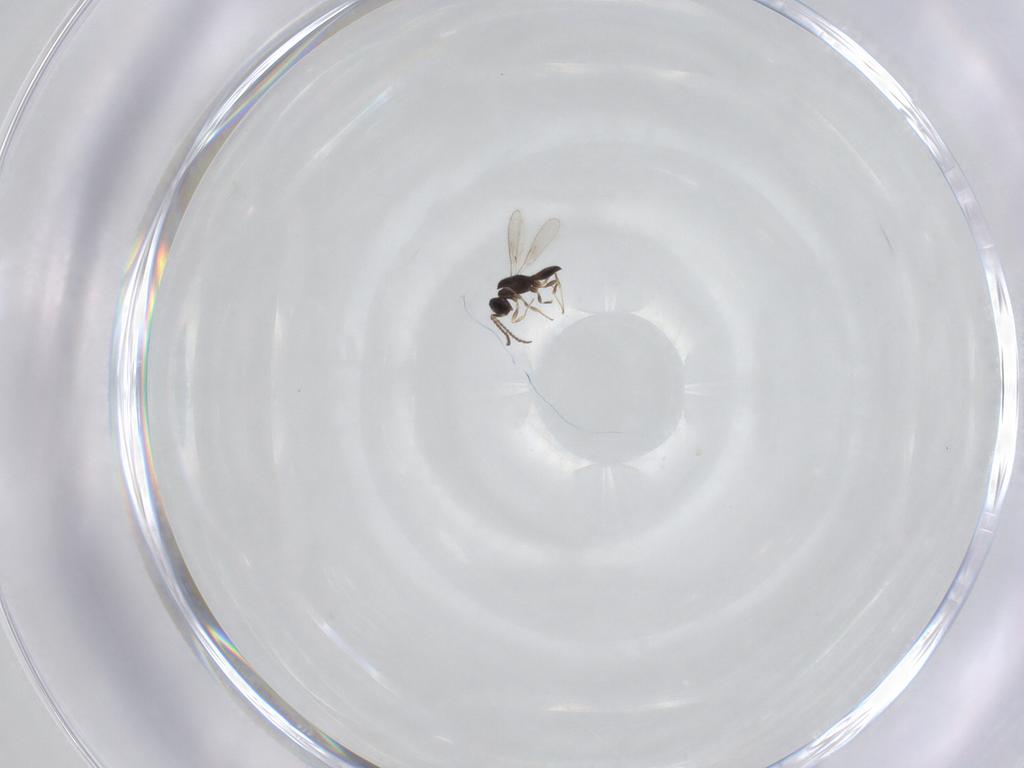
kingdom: Animalia
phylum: Arthropoda
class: Insecta
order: Hymenoptera
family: Scelionidae
